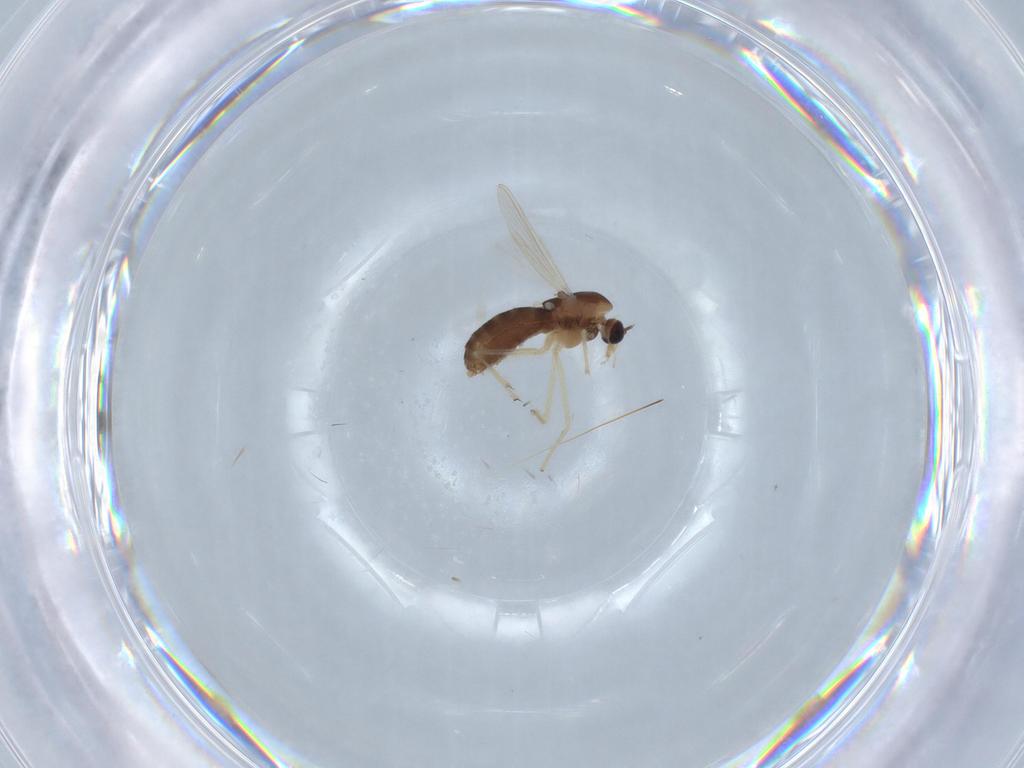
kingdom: Animalia
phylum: Arthropoda
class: Insecta
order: Diptera
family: Chironomidae
